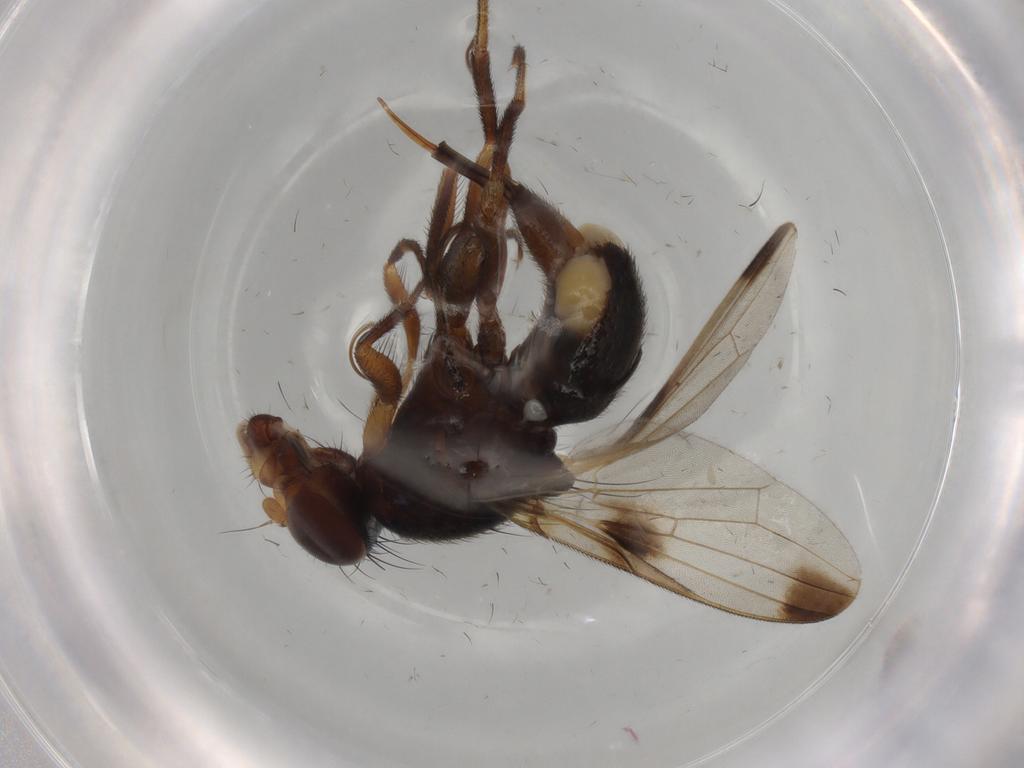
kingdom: Animalia
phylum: Arthropoda
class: Insecta
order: Diptera
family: Ulidiidae
